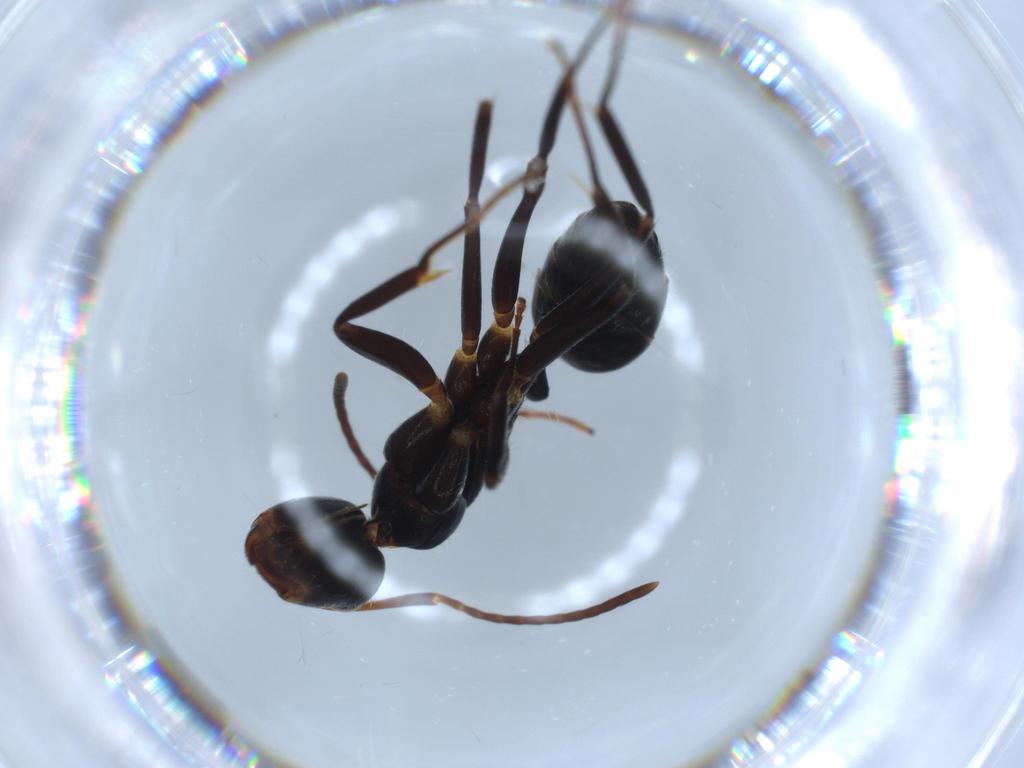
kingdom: Animalia
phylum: Arthropoda
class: Insecta
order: Hymenoptera
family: Formicidae
